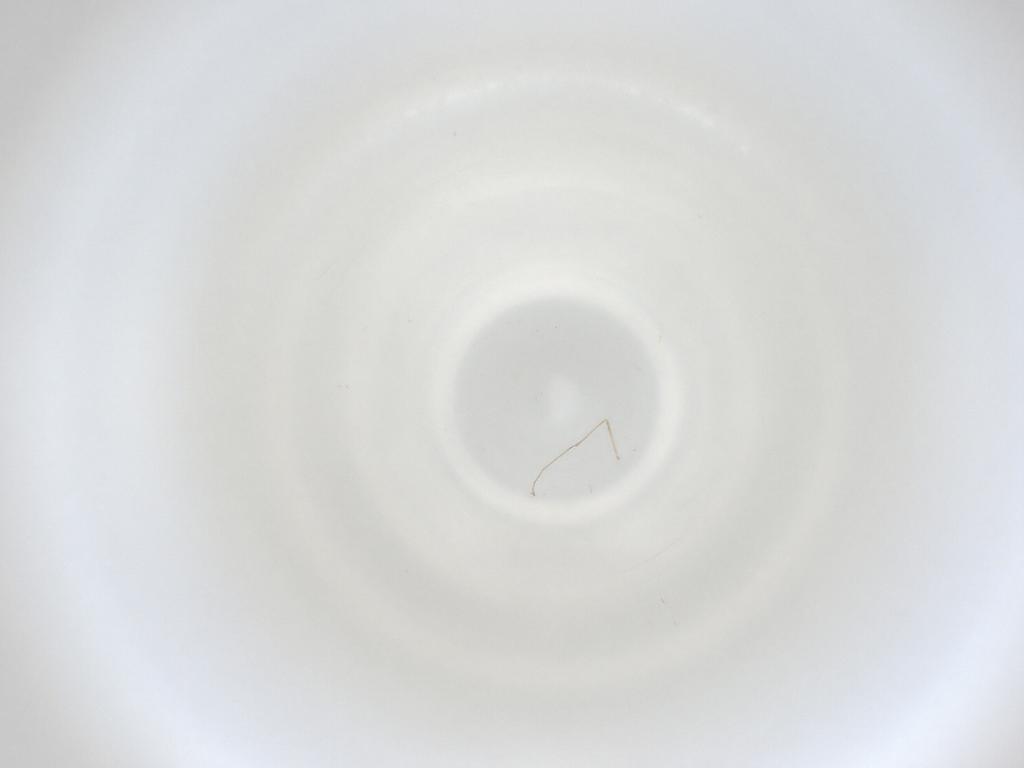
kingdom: Animalia
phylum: Arthropoda
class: Insecta
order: Diptera
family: Cecidomyiidae
